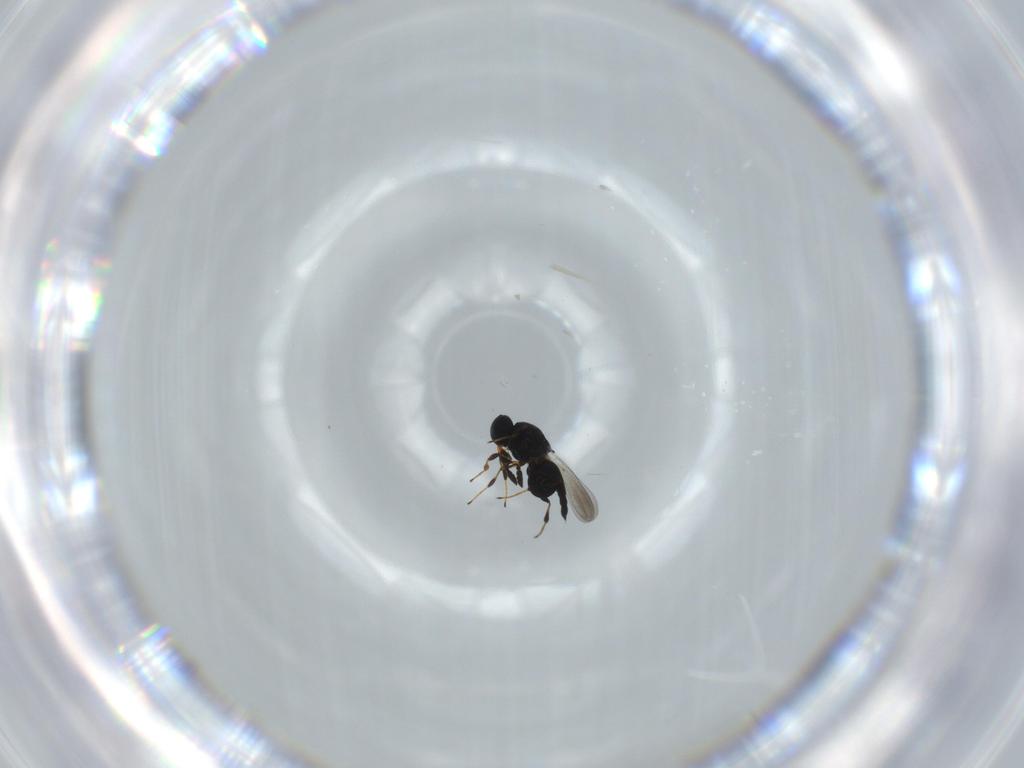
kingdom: Animalia
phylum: Arthropoda
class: Insecta
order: Hymenoptera
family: Platygastridae
